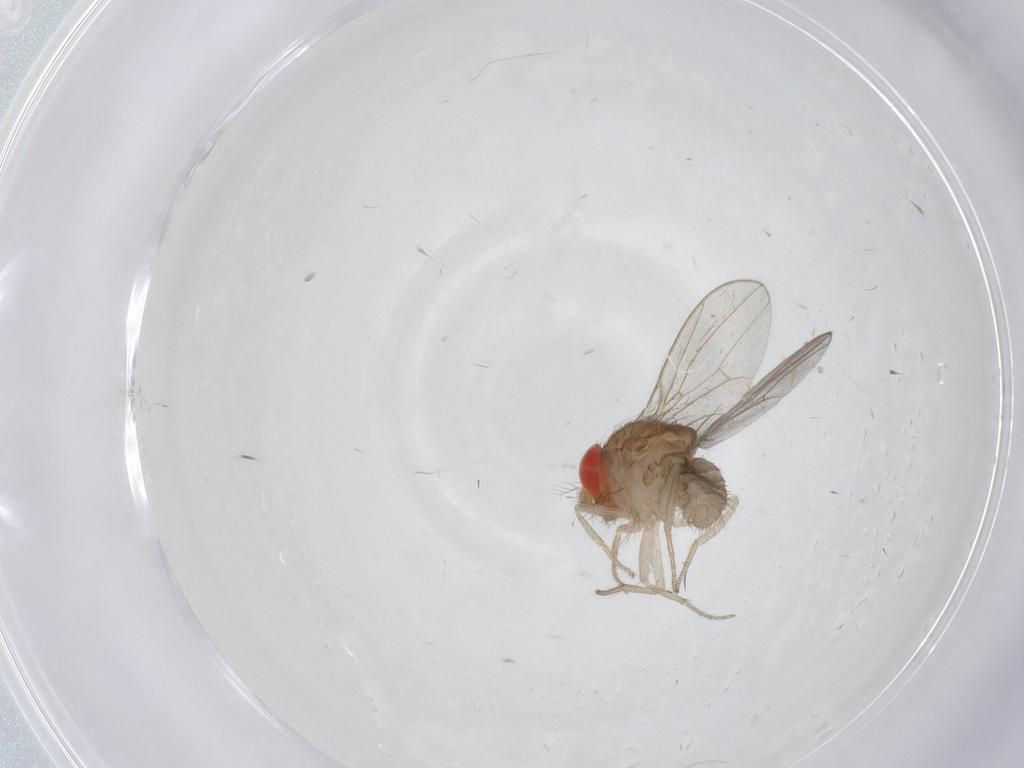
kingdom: Animalia
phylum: Arthropoda
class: Insecta
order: Diptera
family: Drosophilidae
